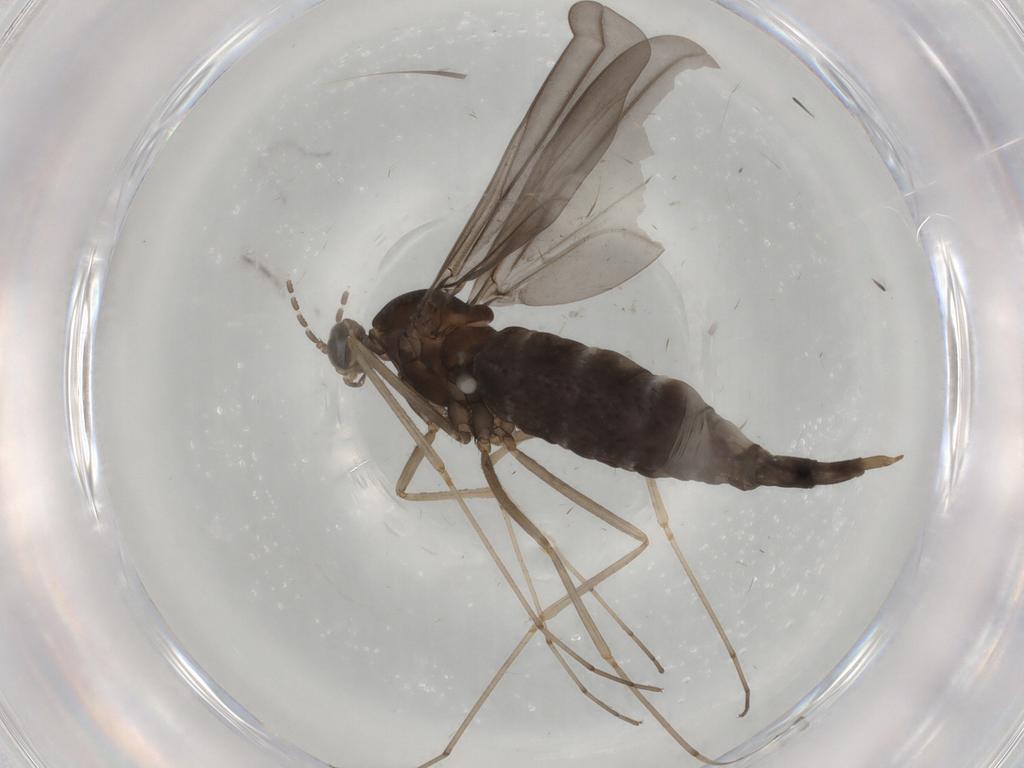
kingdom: Animalia
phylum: Arthropoda
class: Insecta
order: Diptera
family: Cecidomyiidae
